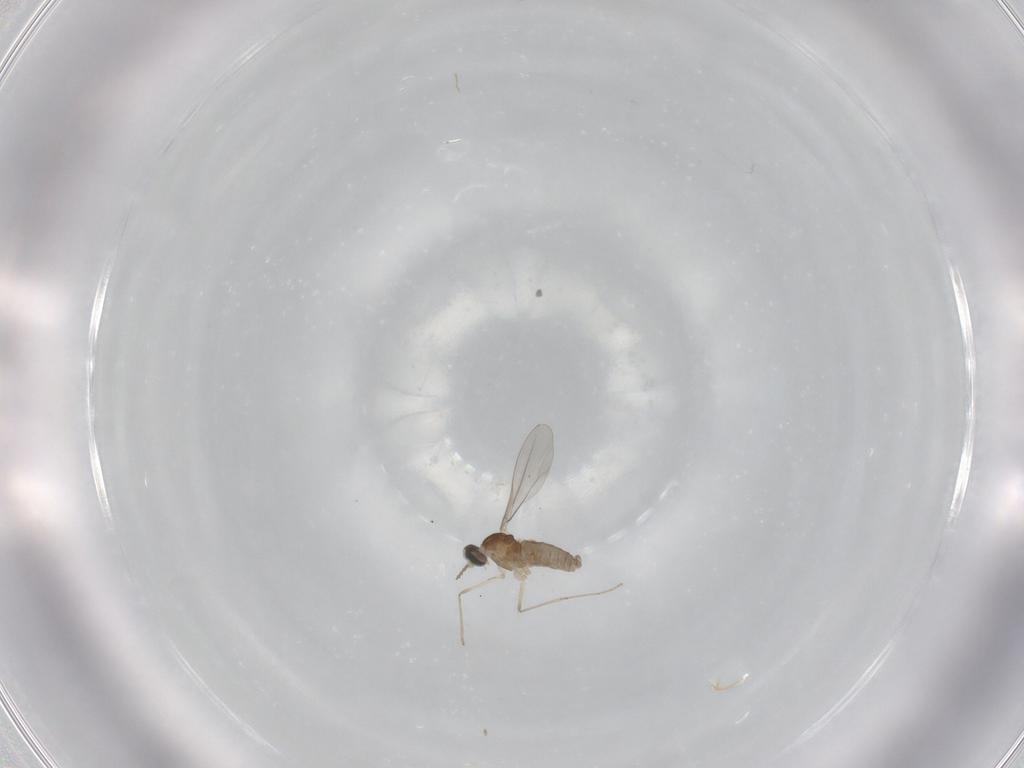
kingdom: Animalia
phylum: Arthropoda
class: Insecta
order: Diptera
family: Cecidomyiidae
